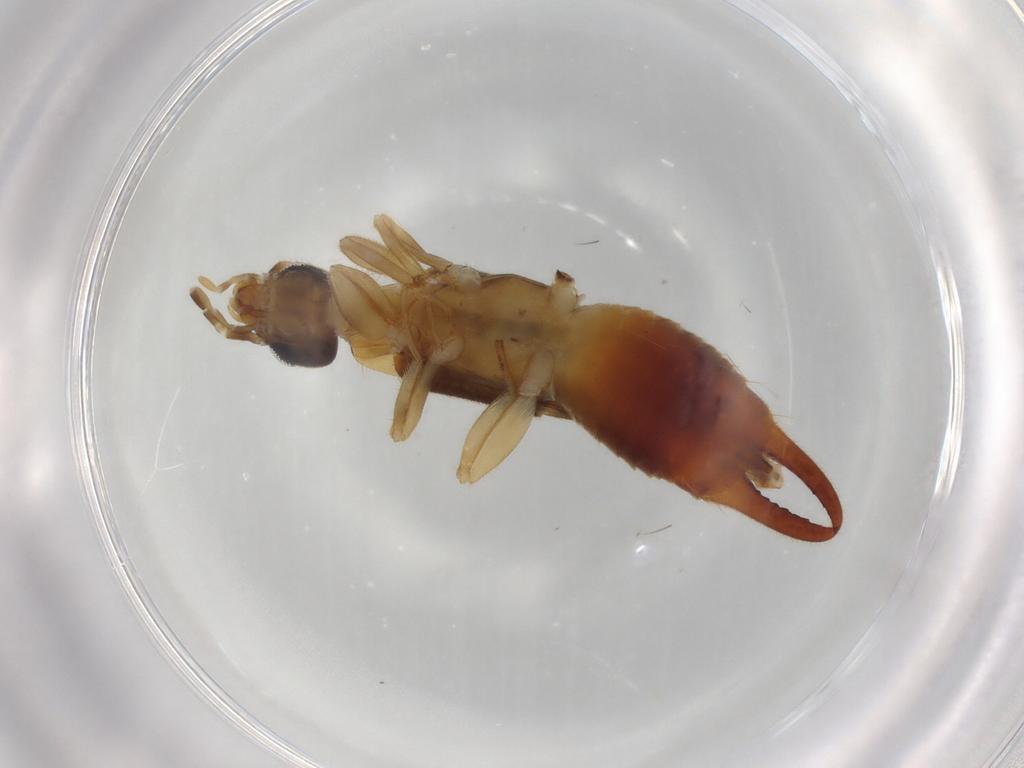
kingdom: Animalia
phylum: Arthropoda
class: Insecta
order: Dermaptera
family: Spongiphoridae
